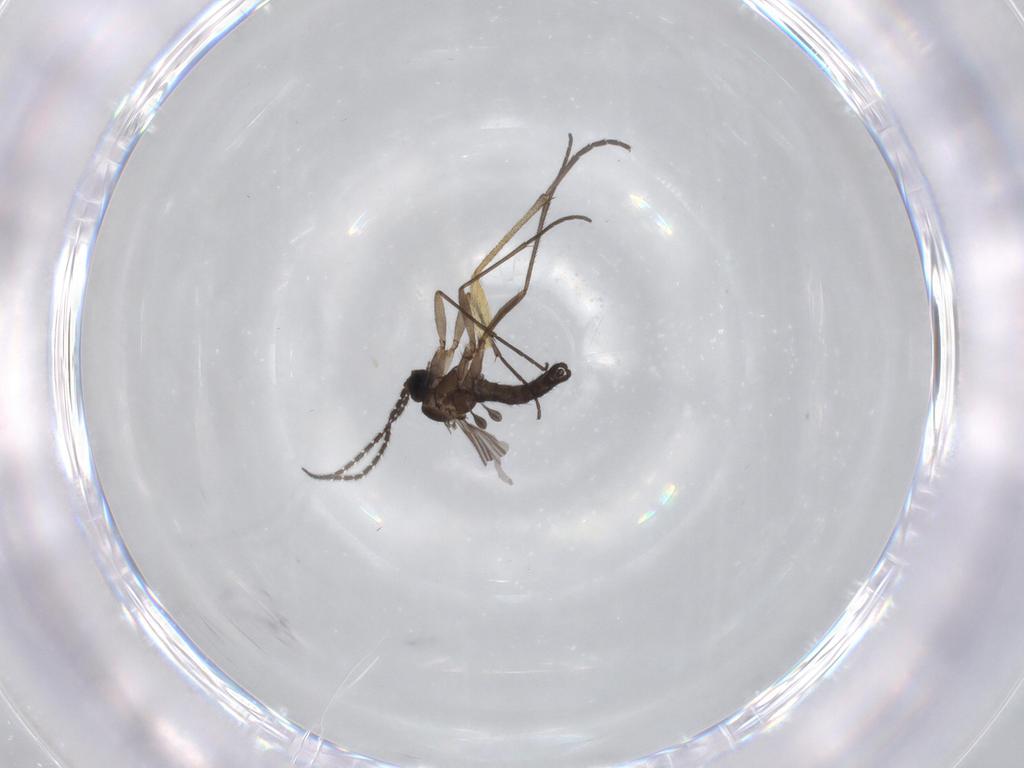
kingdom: Animalia
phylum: Arthropoda
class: Insecta
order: Diptera
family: Sciaridae
